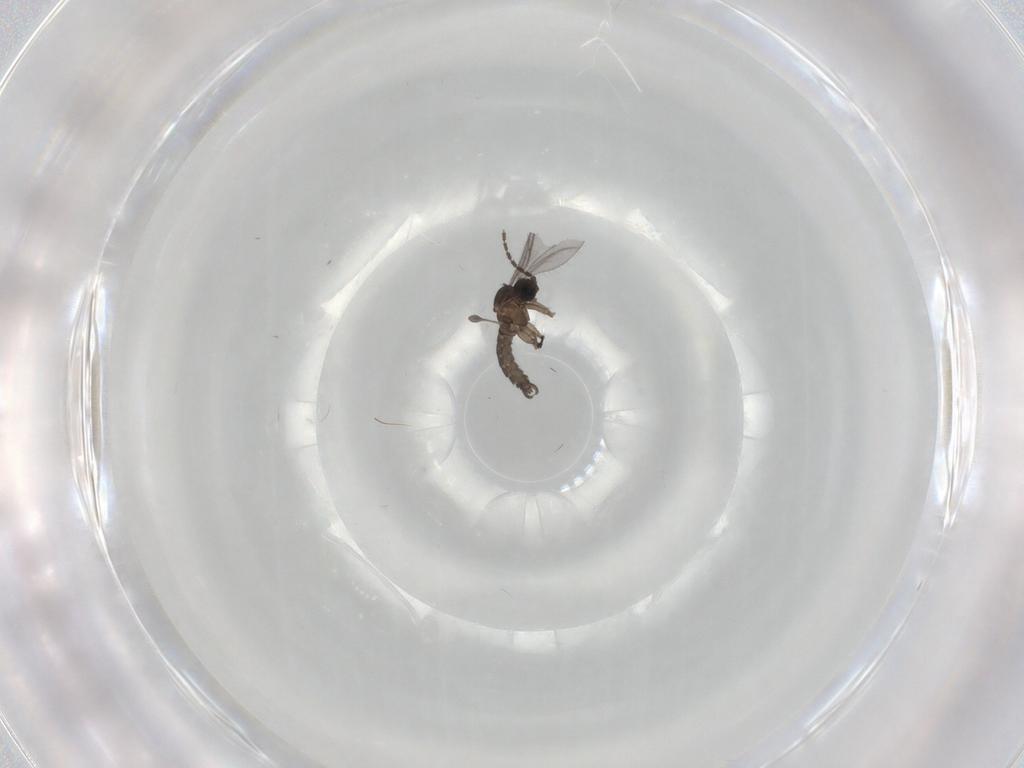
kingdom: Animalia
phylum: Arthropoda
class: Insecta
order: Diptera
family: Sciaridae
